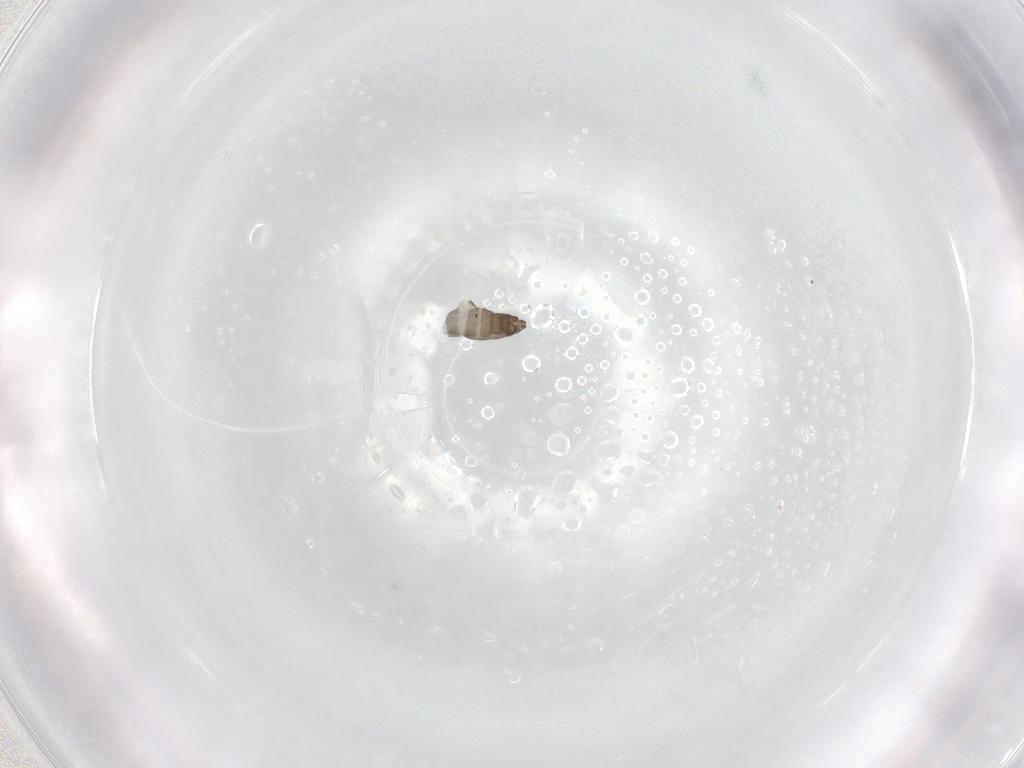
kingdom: Animalia
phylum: Arthropoda
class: Insecta
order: Diptera
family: Chironomidae
